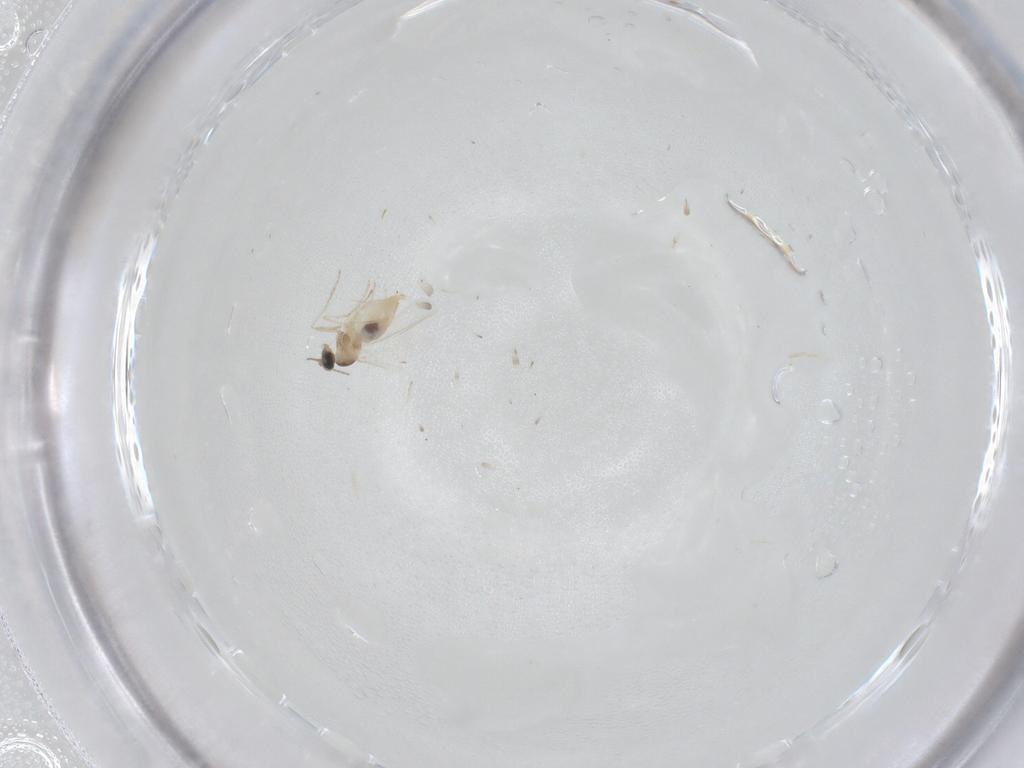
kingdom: Animalia
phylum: Arthropoda
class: Insecta
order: Diptera
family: Cecidomyiidae
